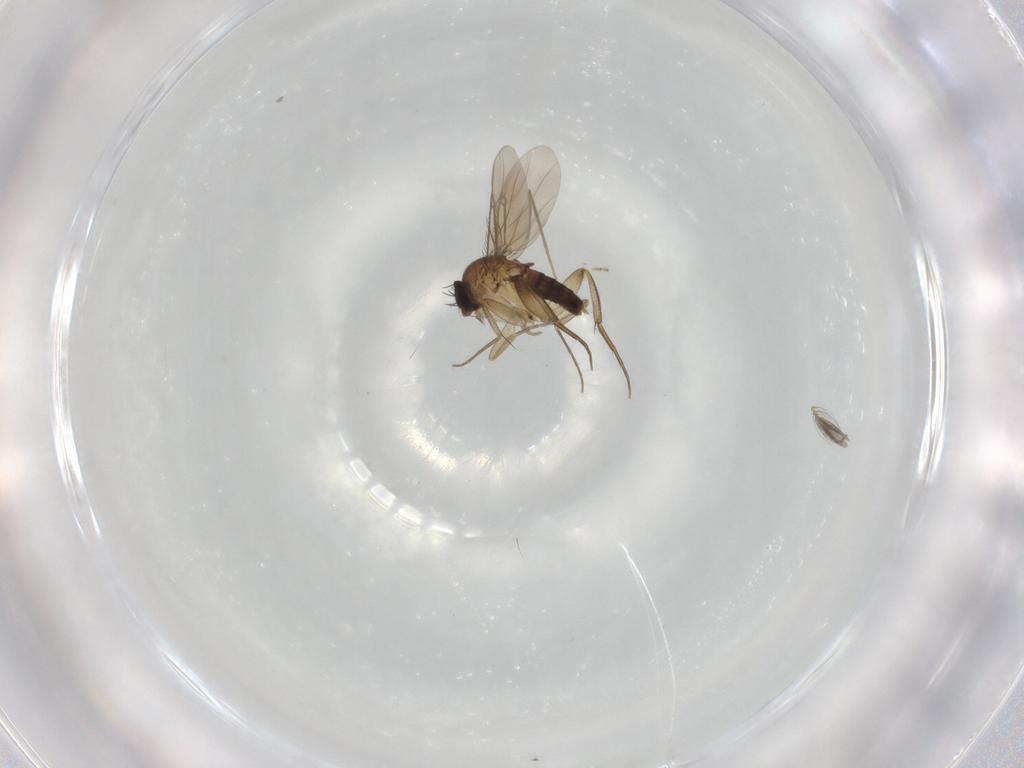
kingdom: Animalia
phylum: Arthropoda
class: Insecta
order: Diptera
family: Phoridae
